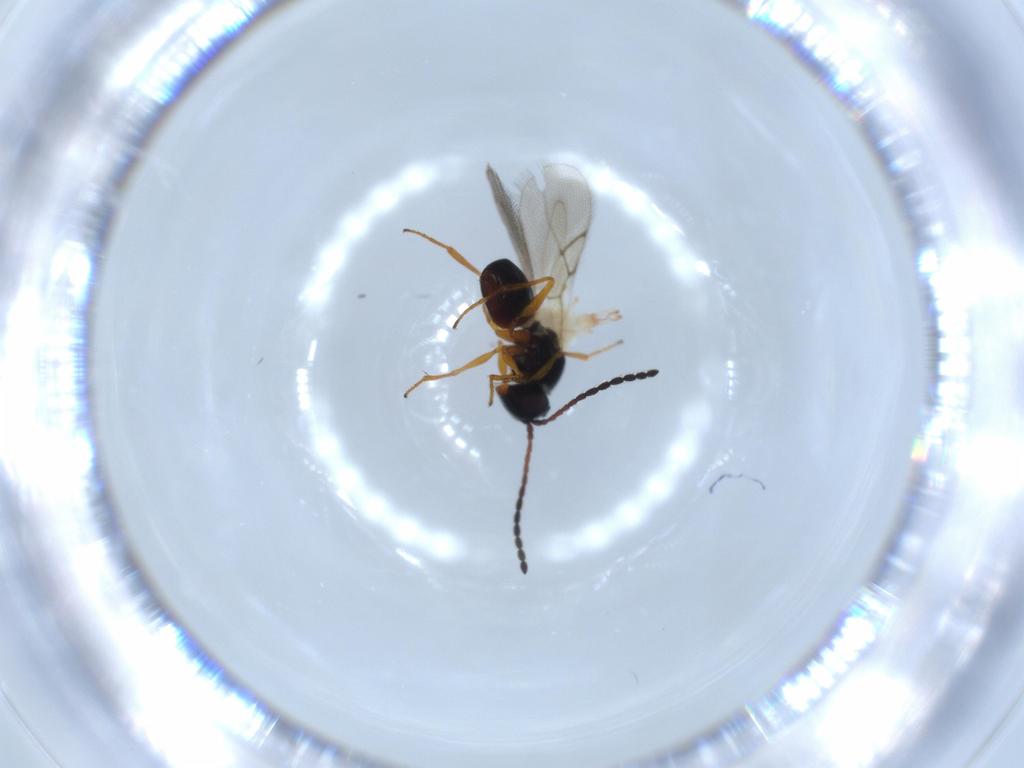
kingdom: Animalia
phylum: Arthropoda
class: Insecta
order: Hymenoptera
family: Figitidae
